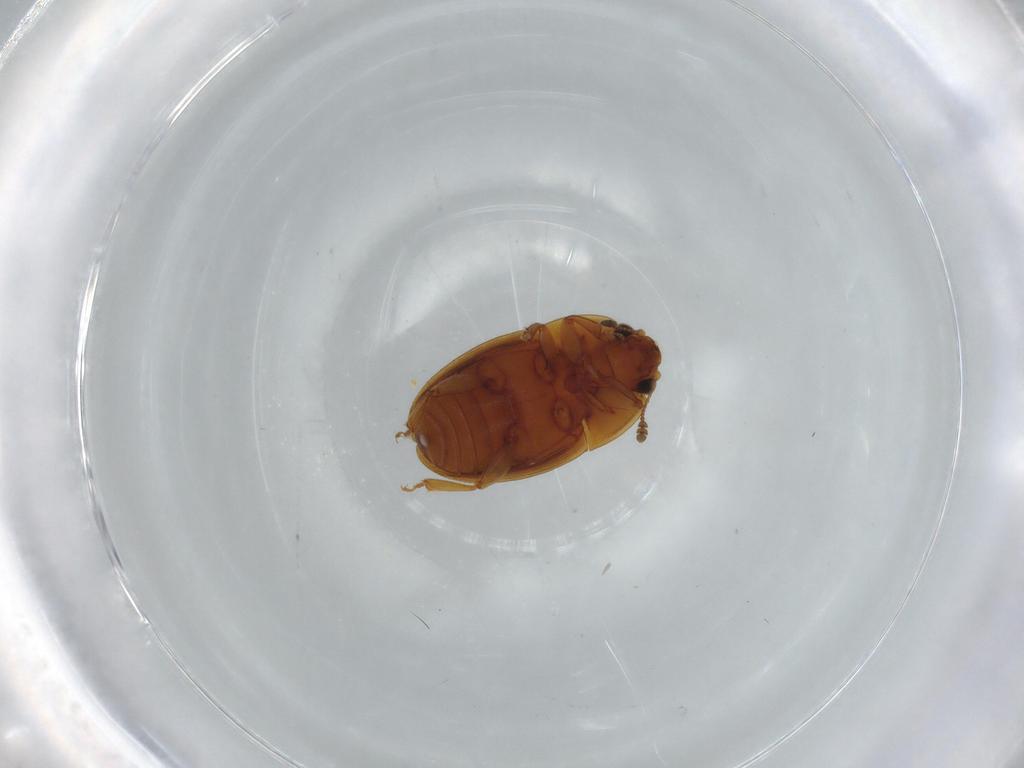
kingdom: Animalia
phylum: Arthropoda
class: Insecta
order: Coleoptera
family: Nitidulidae
